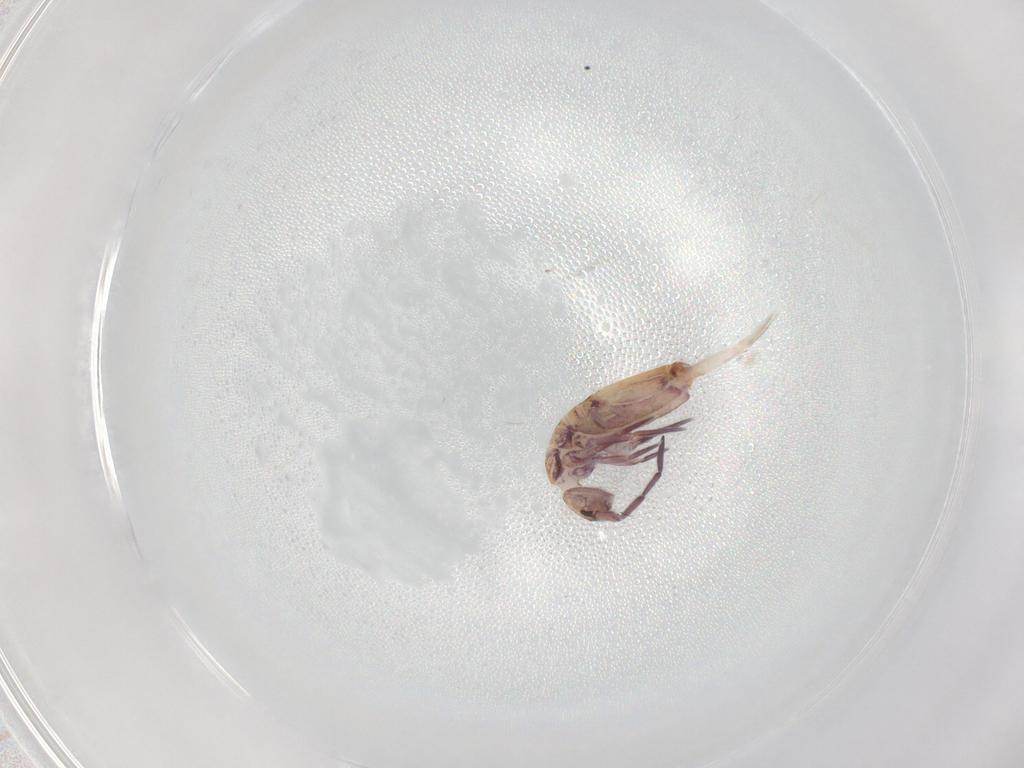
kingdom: Animalia
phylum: Arthropoda
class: Collembola
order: Entomobryomorpha
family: Entomobryidae
